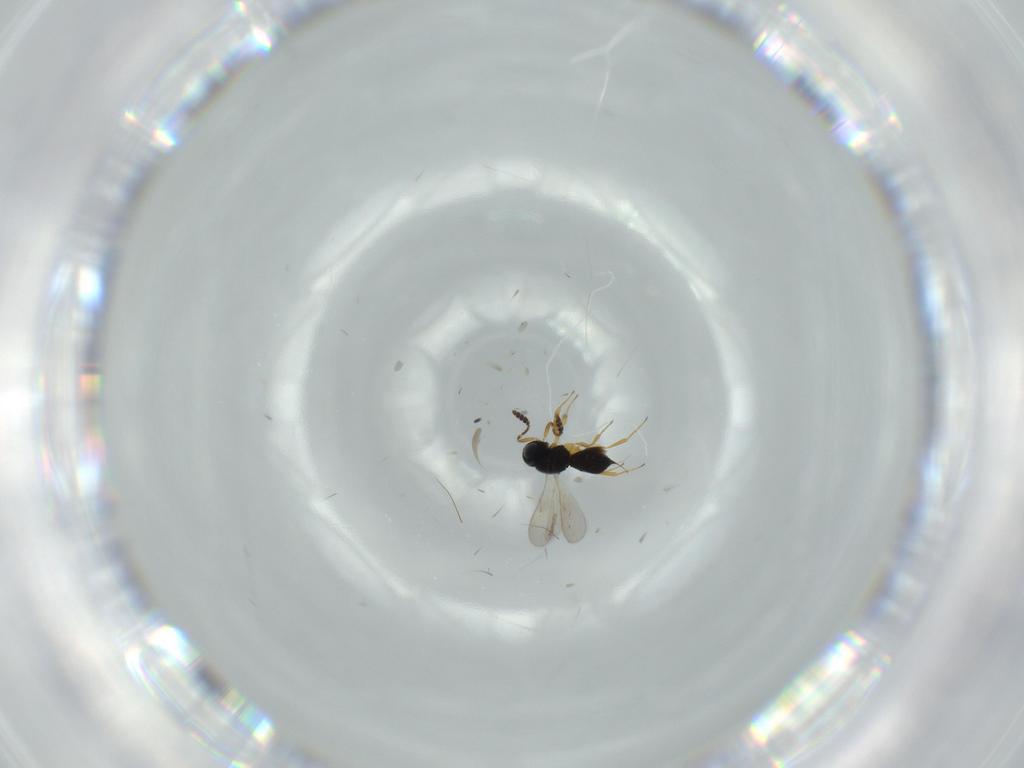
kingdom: Animalia
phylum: Arthropoda
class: Insecta
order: Hymenoptera
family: Scelionidae
